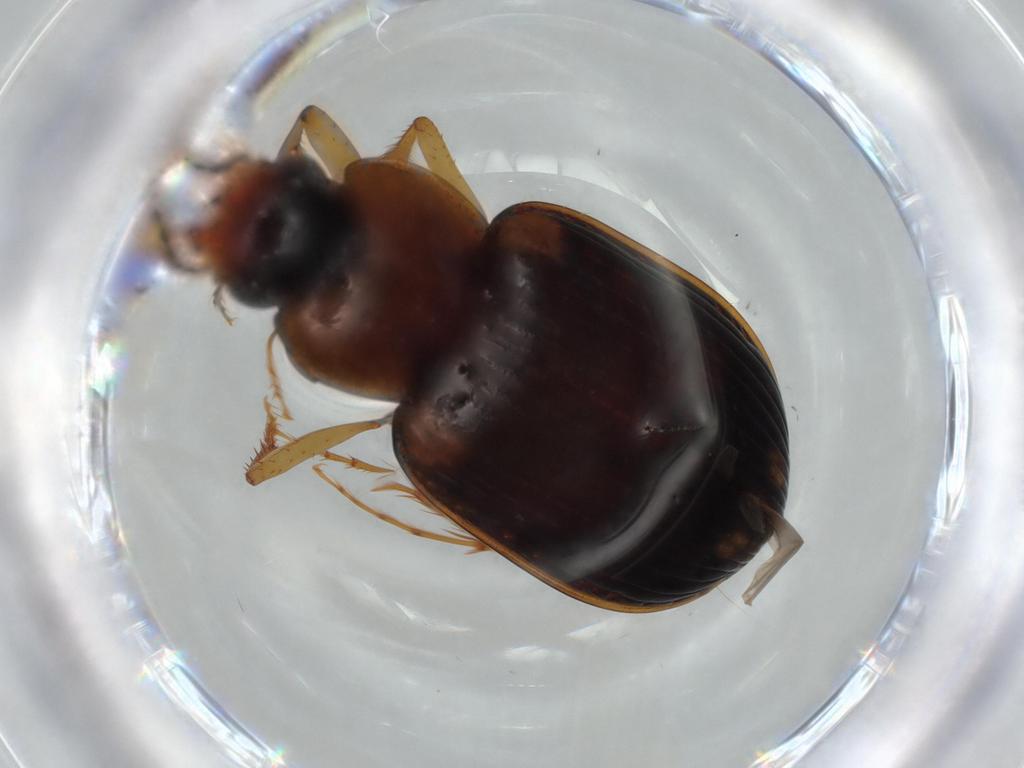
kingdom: Animalia
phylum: Arthropoda
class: Insecta
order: Coleoptera
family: Carabidae
